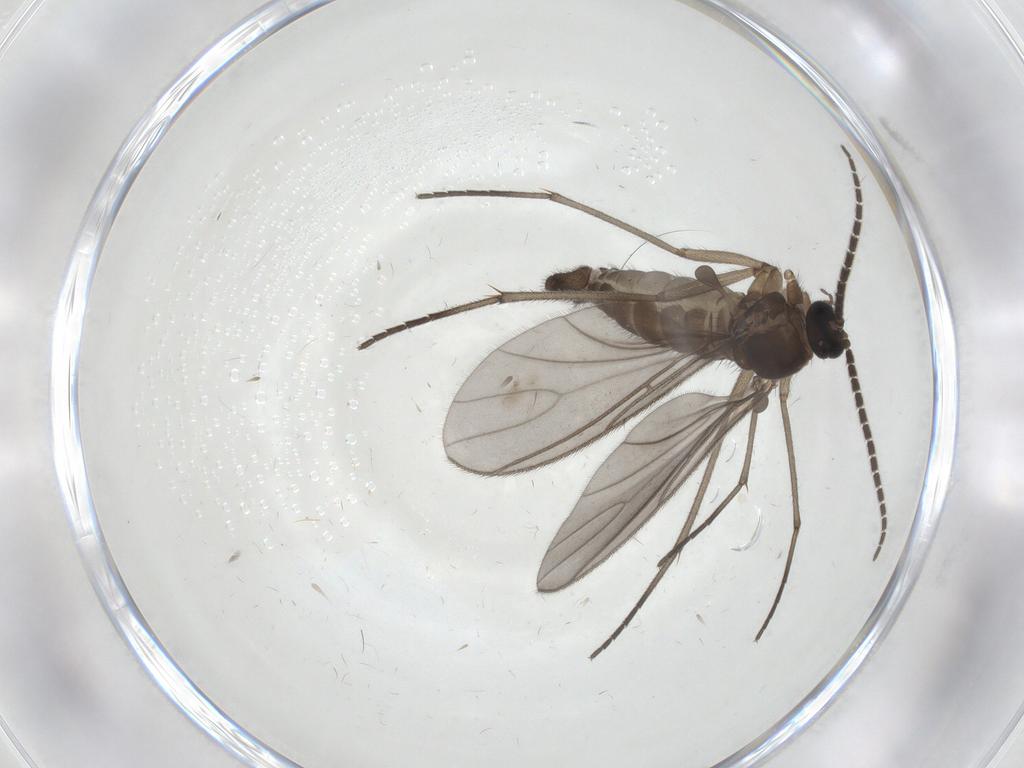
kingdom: Animalia
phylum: Arthropoda
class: Insecta
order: Diptera
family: Sciaridae
